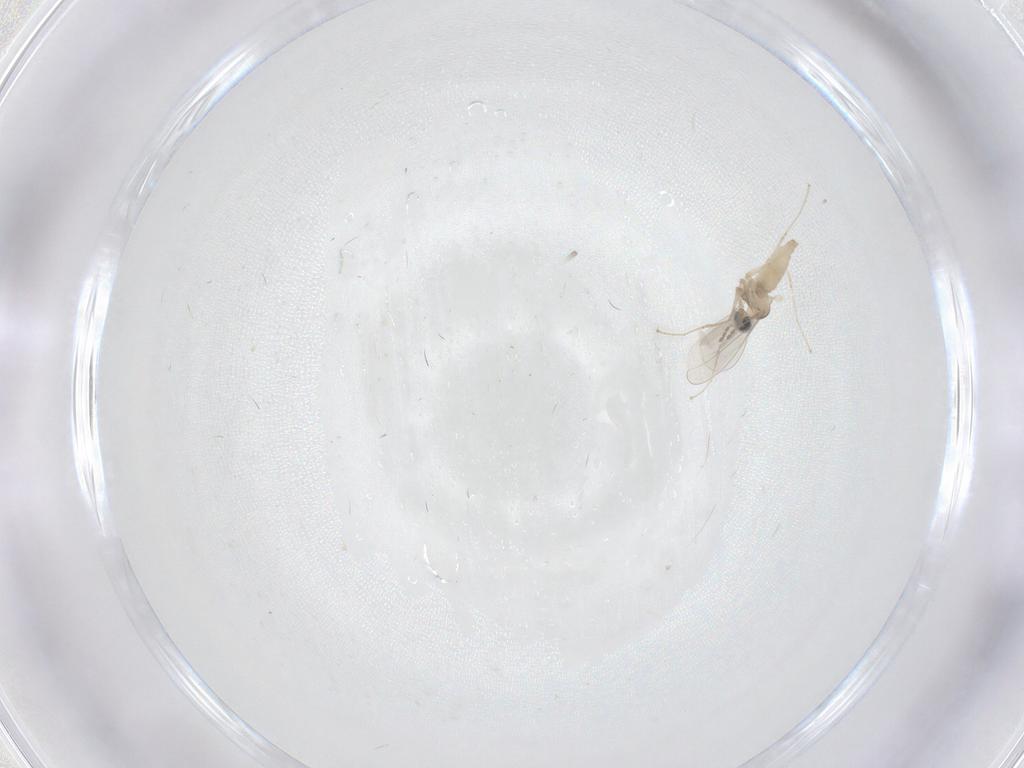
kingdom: Animalia
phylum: Arthropoda
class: Insecta
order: Diptera
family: Cecidomyiidae
